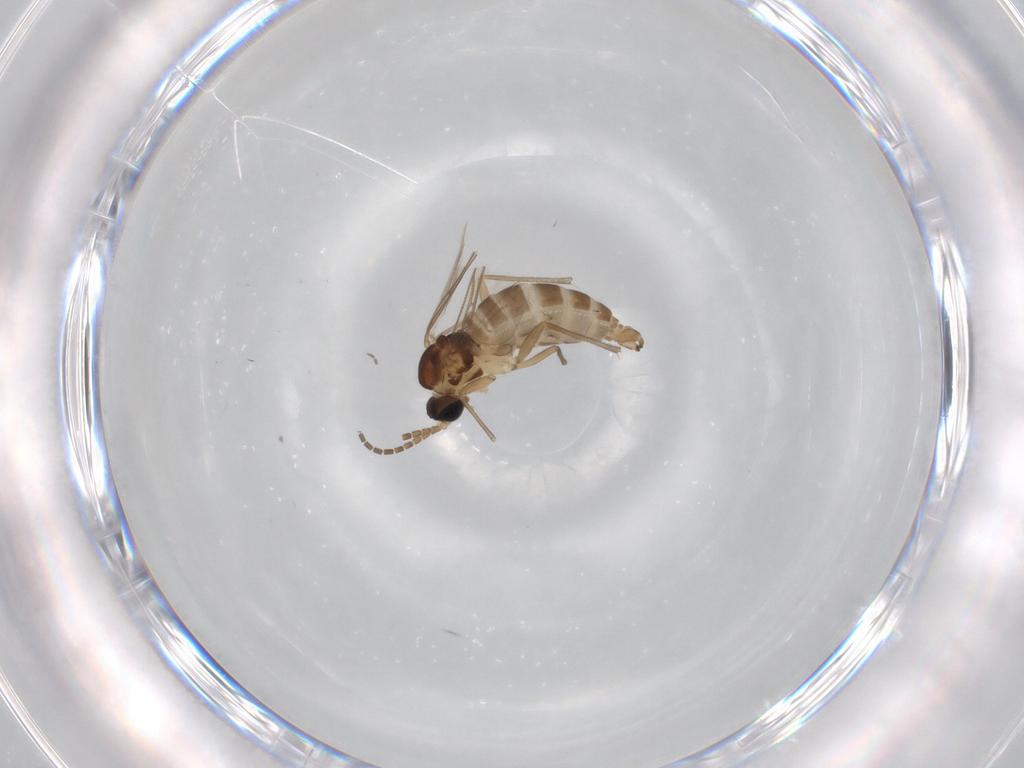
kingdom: Animalia
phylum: Arthropoda
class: Insecta
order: Diptera
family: Sciaridae
